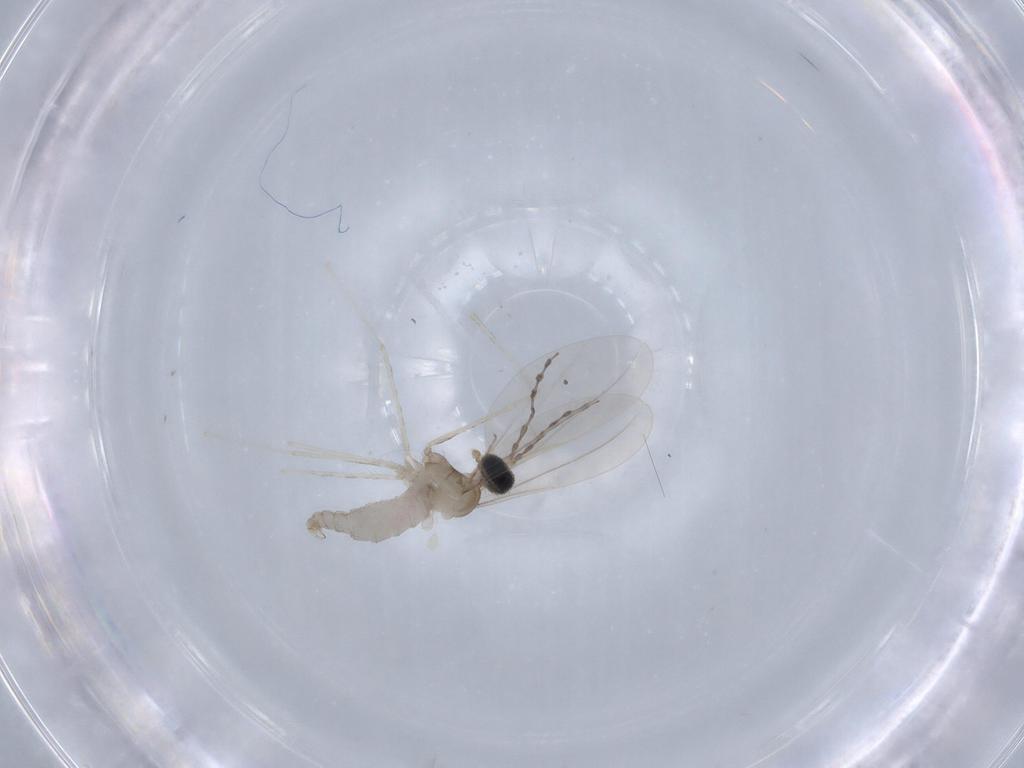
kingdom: Animalia
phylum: Arthropoda
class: Insecta
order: Diptera
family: Cecidomyiidae
